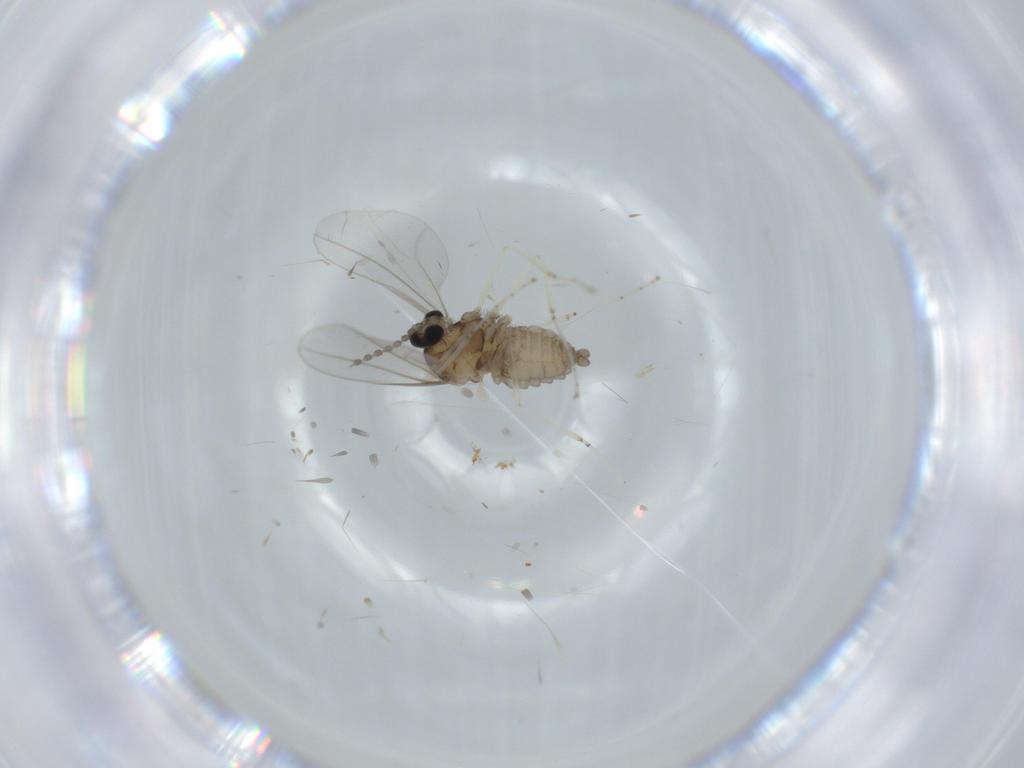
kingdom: Animalia
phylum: Arthropoda
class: Insecta
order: Diptera
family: Cecidomyiidae
